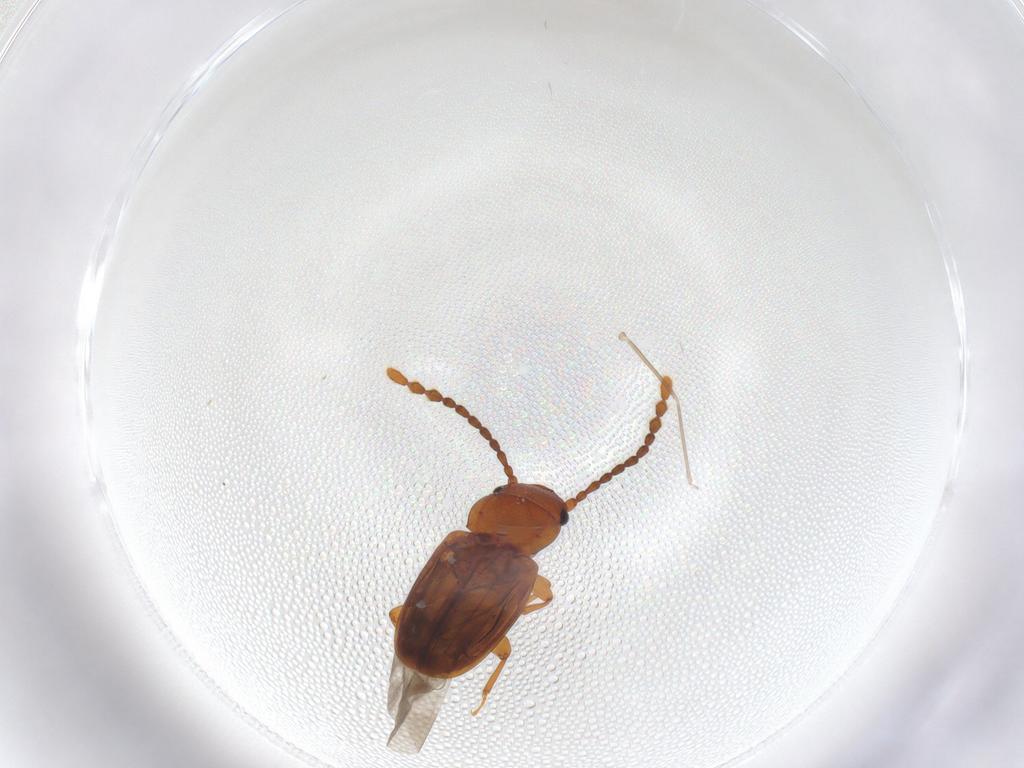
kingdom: Animalia
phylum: Arthropoda
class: Insecta
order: Coleoptera
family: Laemophloeidae
